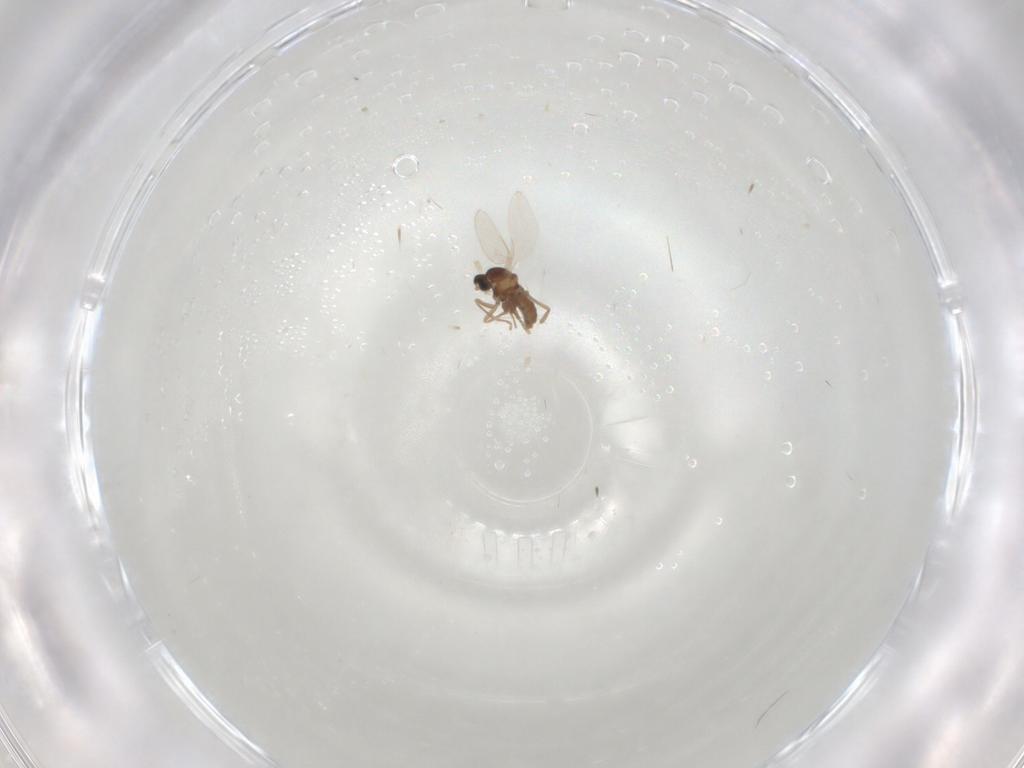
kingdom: Animalia
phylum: Arthropoda
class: Insecta
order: Diptera
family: Cecidomyiidae
